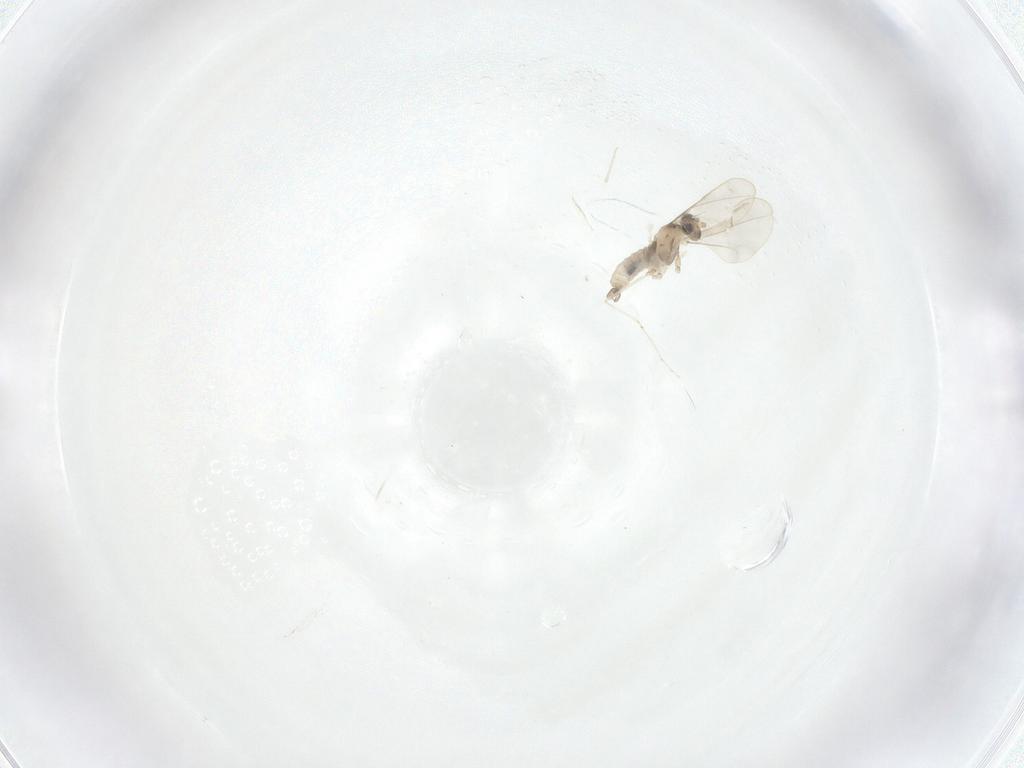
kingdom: Animalia
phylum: Arthropoda
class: Insecta
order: Diptera
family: Cecidomyiidae
